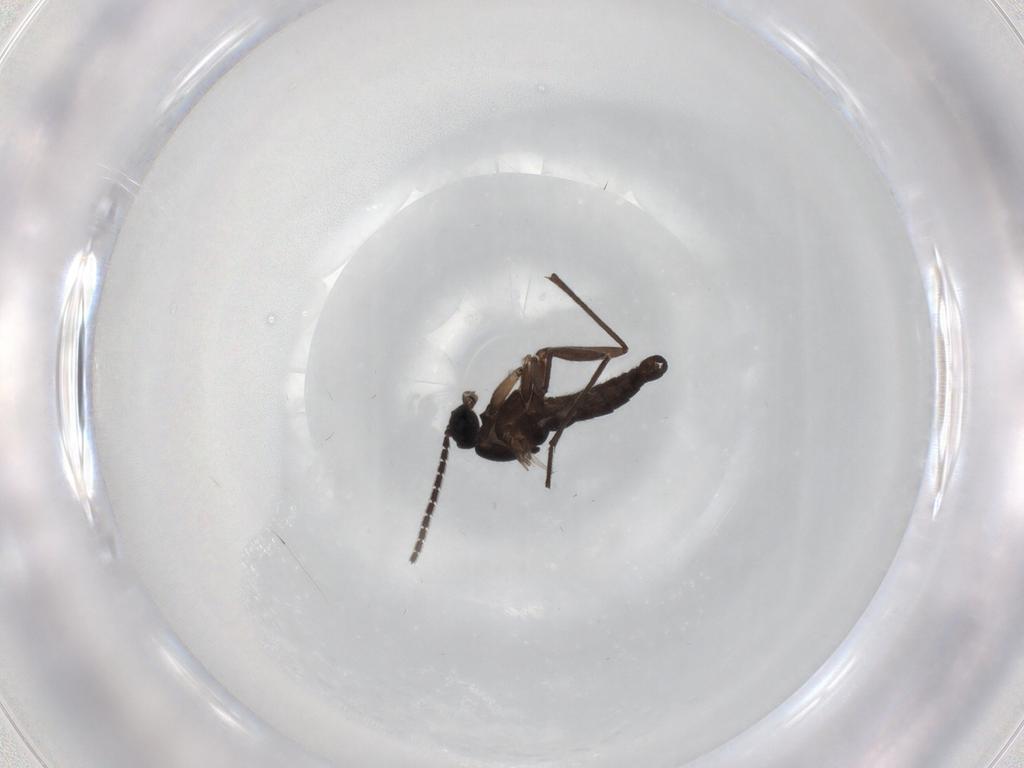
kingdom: Animalia
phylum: Arthropoda
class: Insecta
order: Diptera
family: Sciaridae
